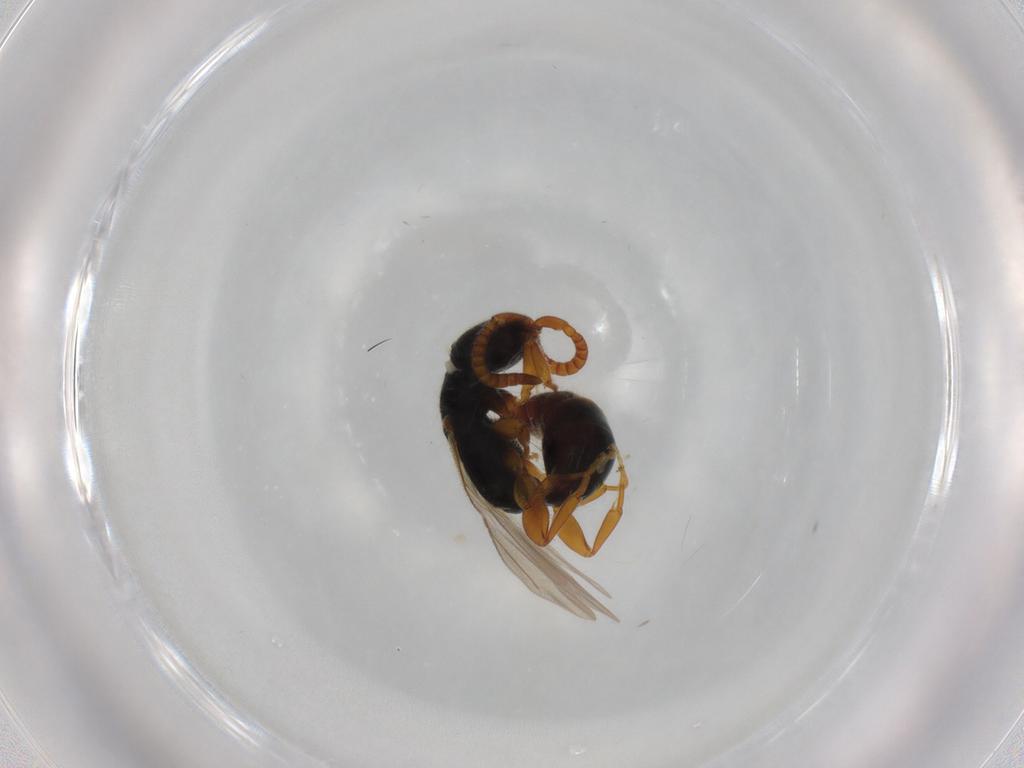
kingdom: Animalia
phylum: Arthropoda
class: Insecta
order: Hymenoptera
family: Bethylidae
